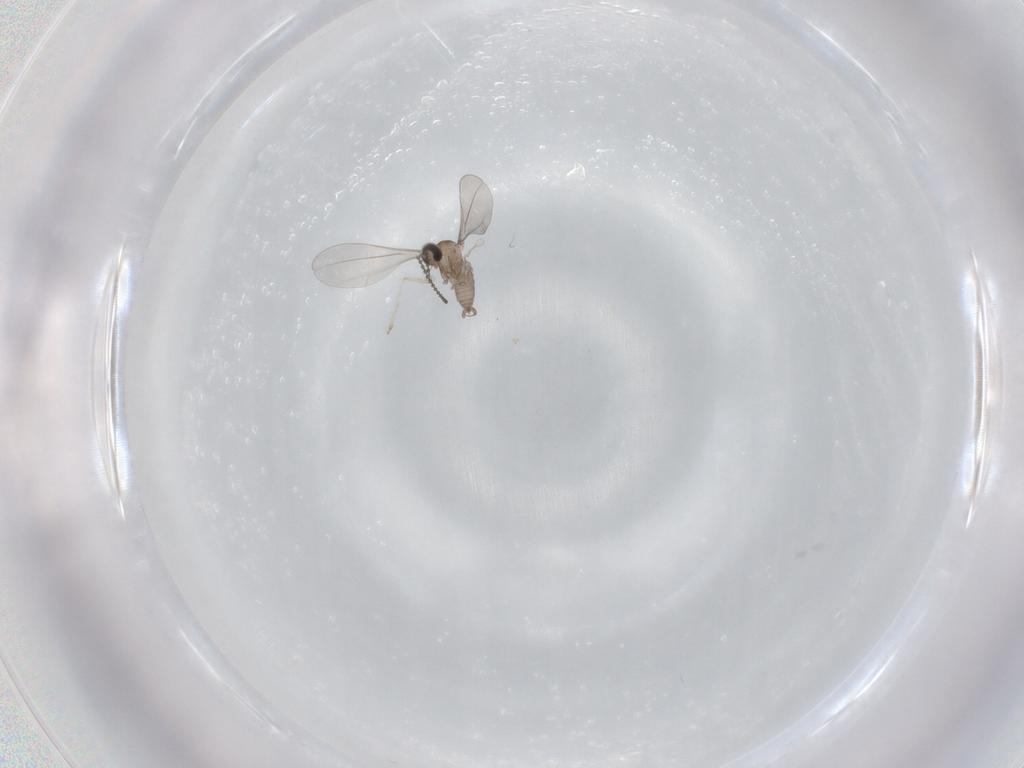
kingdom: Animalia
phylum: Arthropoda
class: Insecta
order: Diptera
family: Cecidomyiidae
